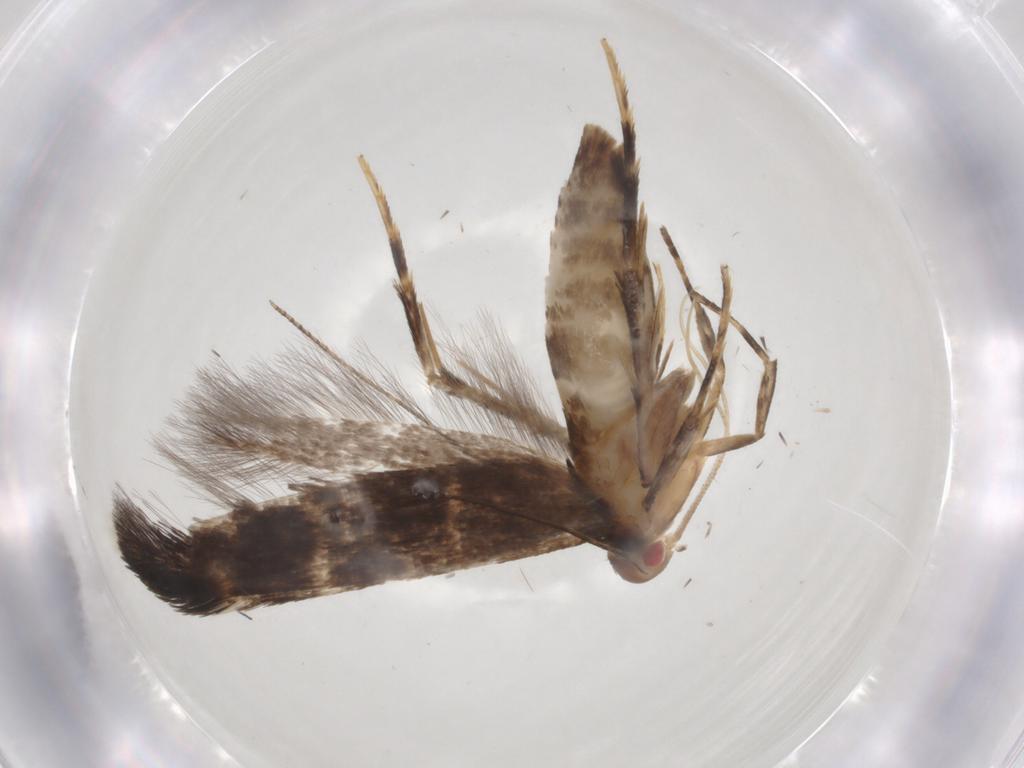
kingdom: Animalia
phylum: Arthropoda
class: Insecta
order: Lepidoptera
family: Cosmopterigidae
